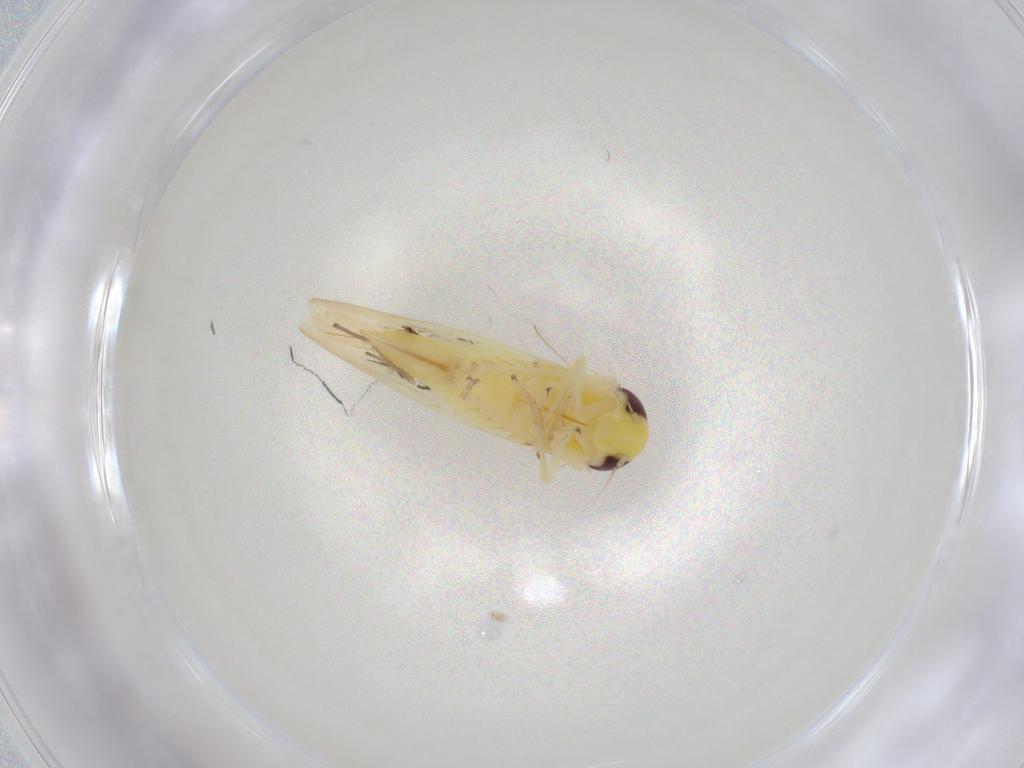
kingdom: Animalia
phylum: Arthropoda
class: Insecta
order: Hemiptera
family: Cicadellidae
